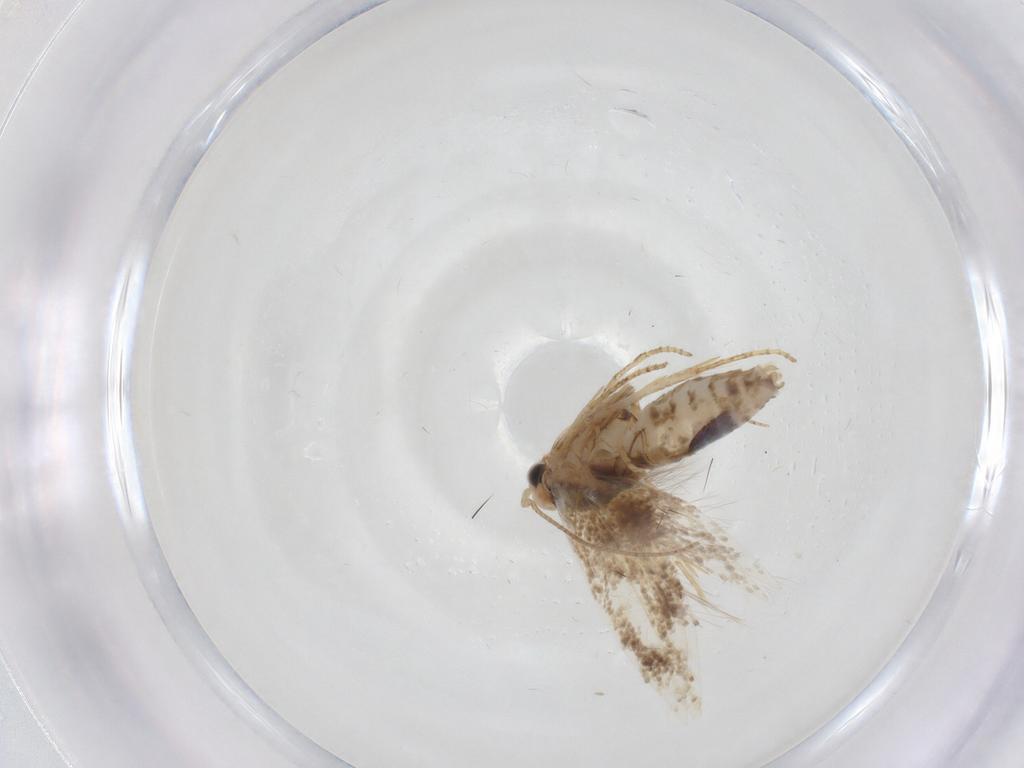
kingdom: Animalia
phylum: Arthropoda
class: Insecta
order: Lepidoptera
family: Bucculatricidae
